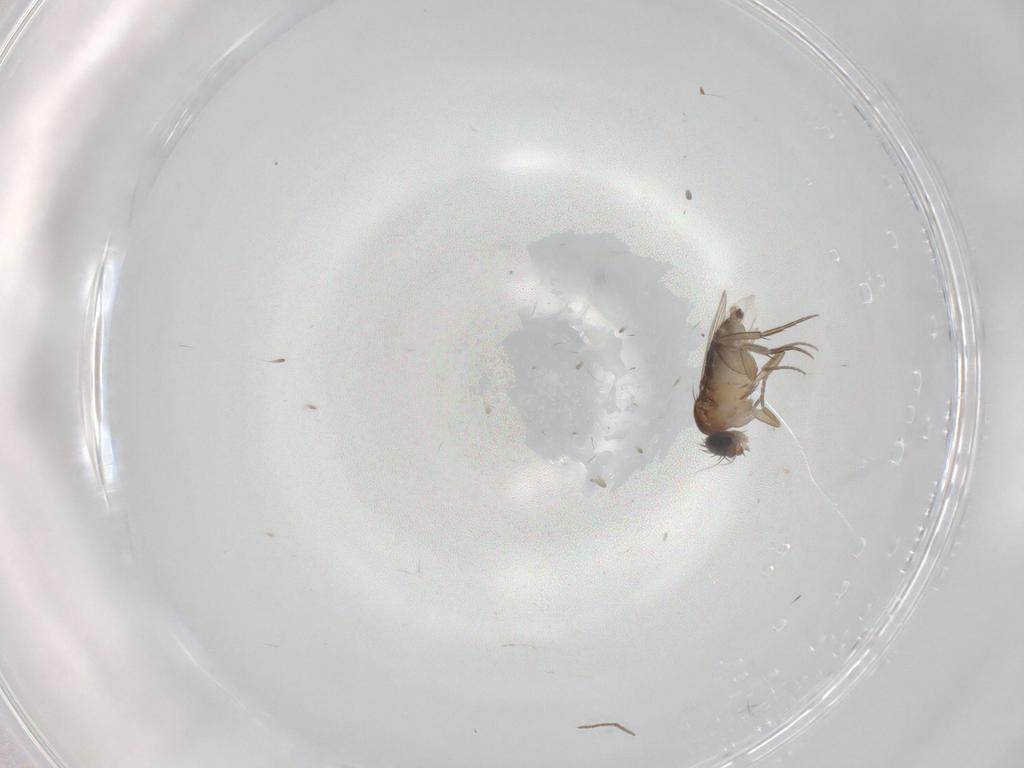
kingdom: Animalia
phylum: Arthropoda
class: Insecta
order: Diptera
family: Phoridae
